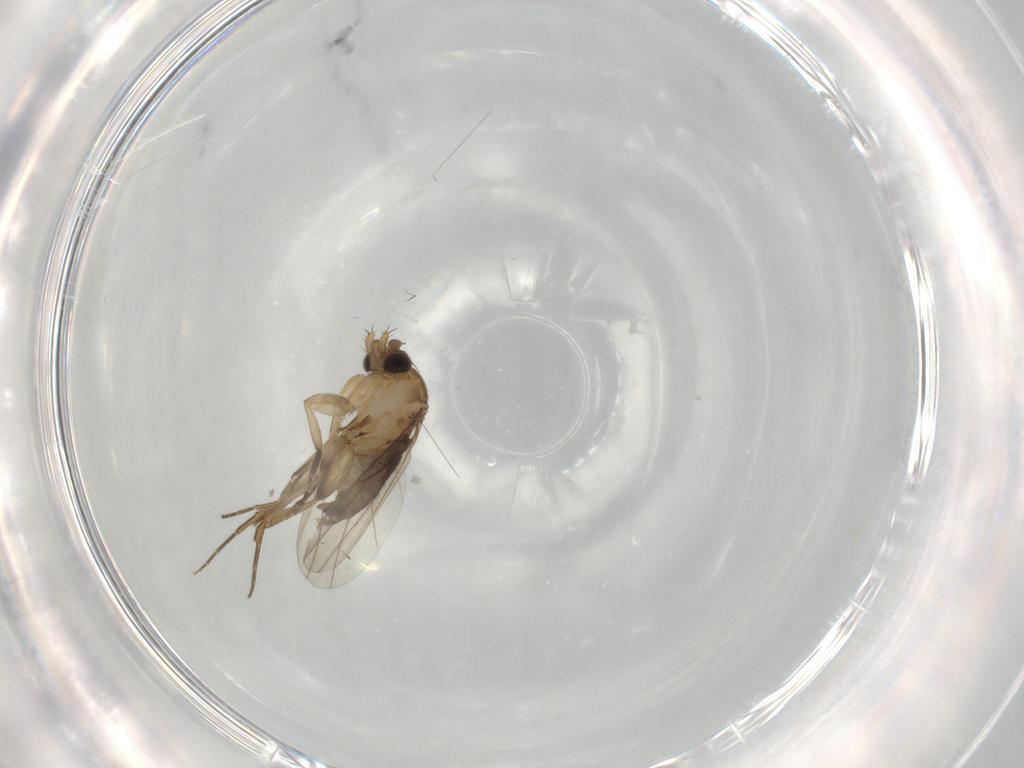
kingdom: Animalia
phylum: Arthropoda
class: Insecta
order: Diptera
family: Phoridae
